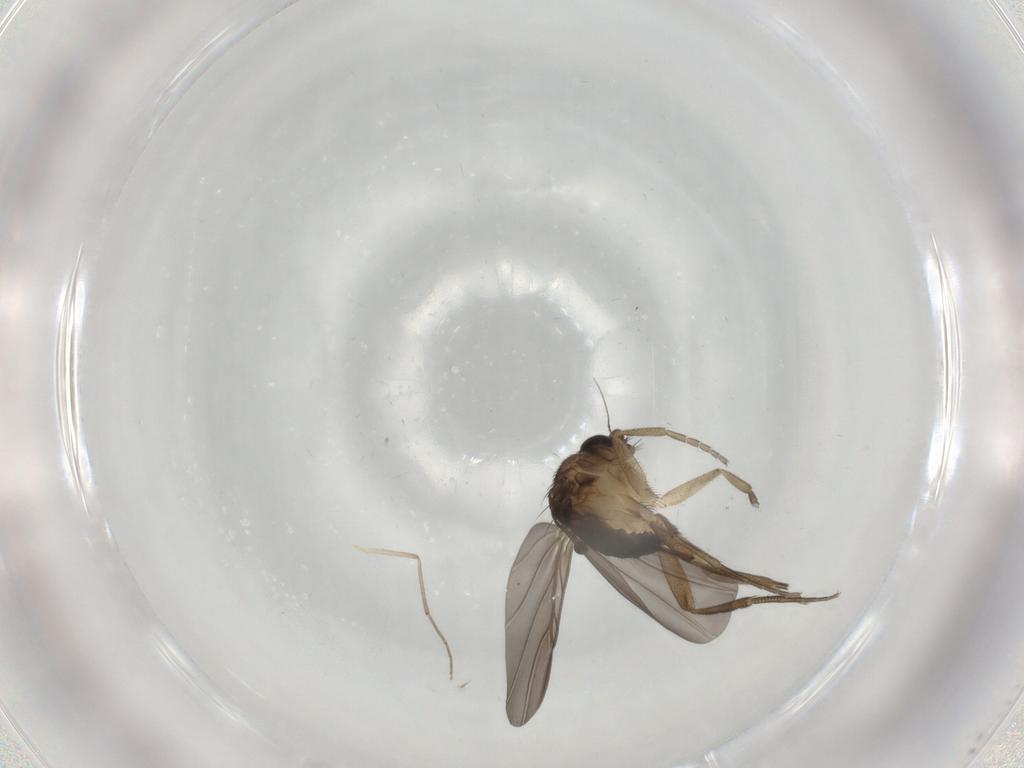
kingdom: Animalia
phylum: Arthropoda
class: Insecta
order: Diptera
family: Phoridae
